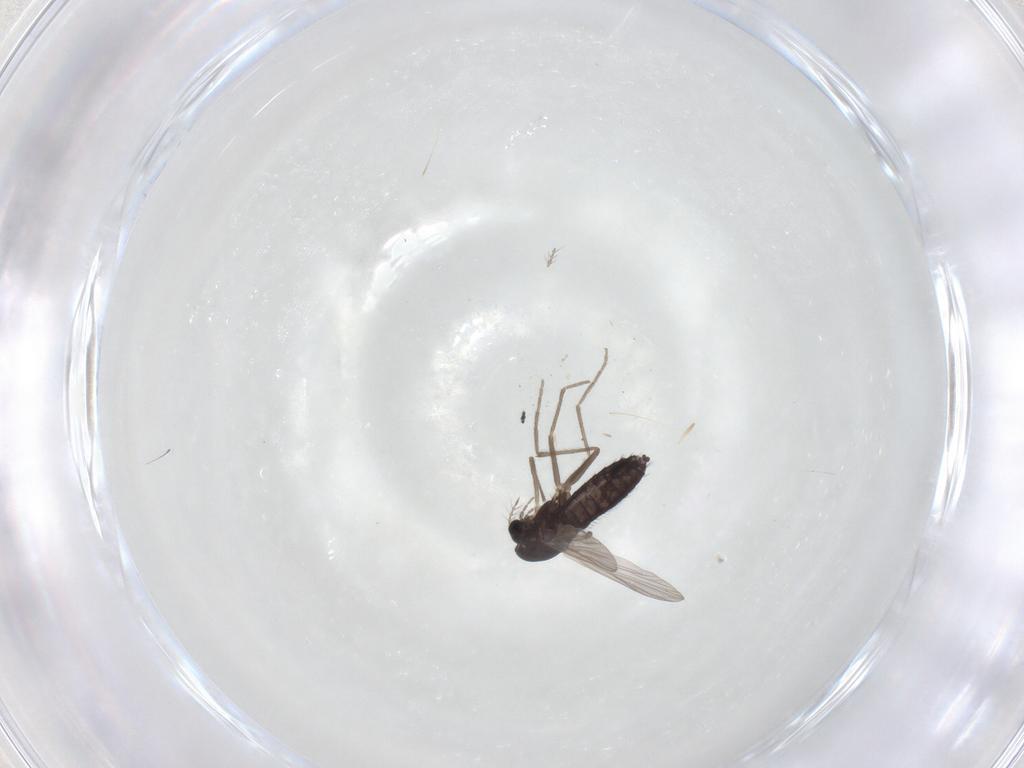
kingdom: Animalia
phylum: Arthropoda
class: Insecta
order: Diptera
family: Chironomidae
